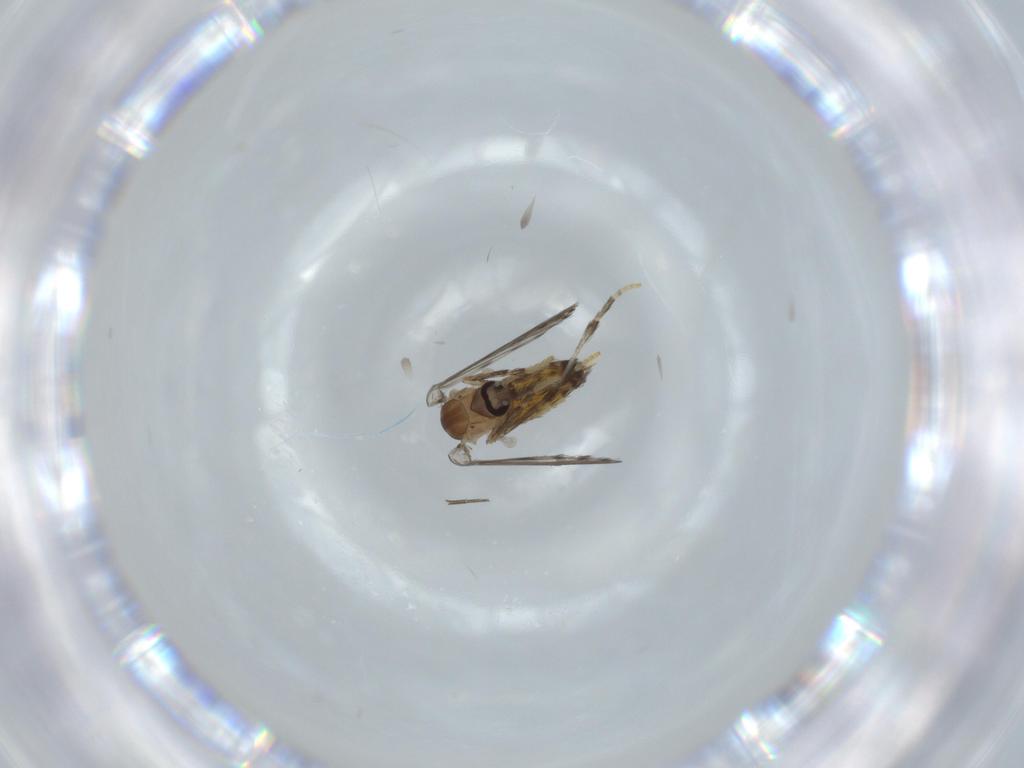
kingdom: Animalia
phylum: Arthropoda
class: Insecta
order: Diptera
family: Psychodidae
